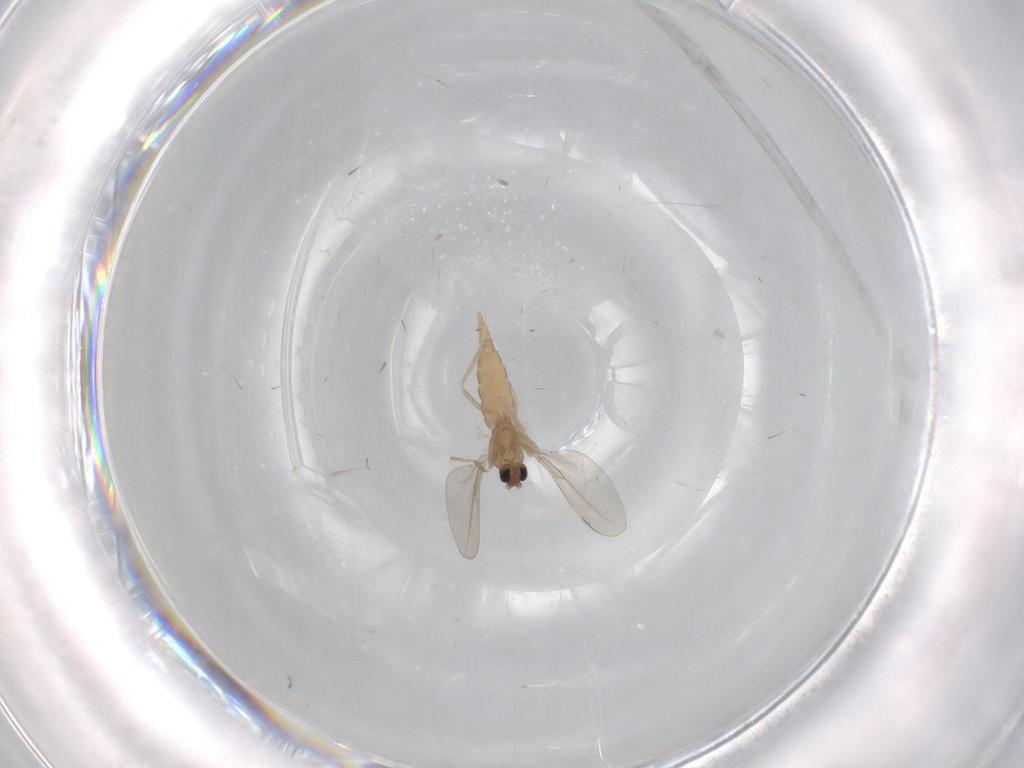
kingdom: Animalia
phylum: Arthropoda
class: Insecta
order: Diptera
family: Cecidomyiidae
